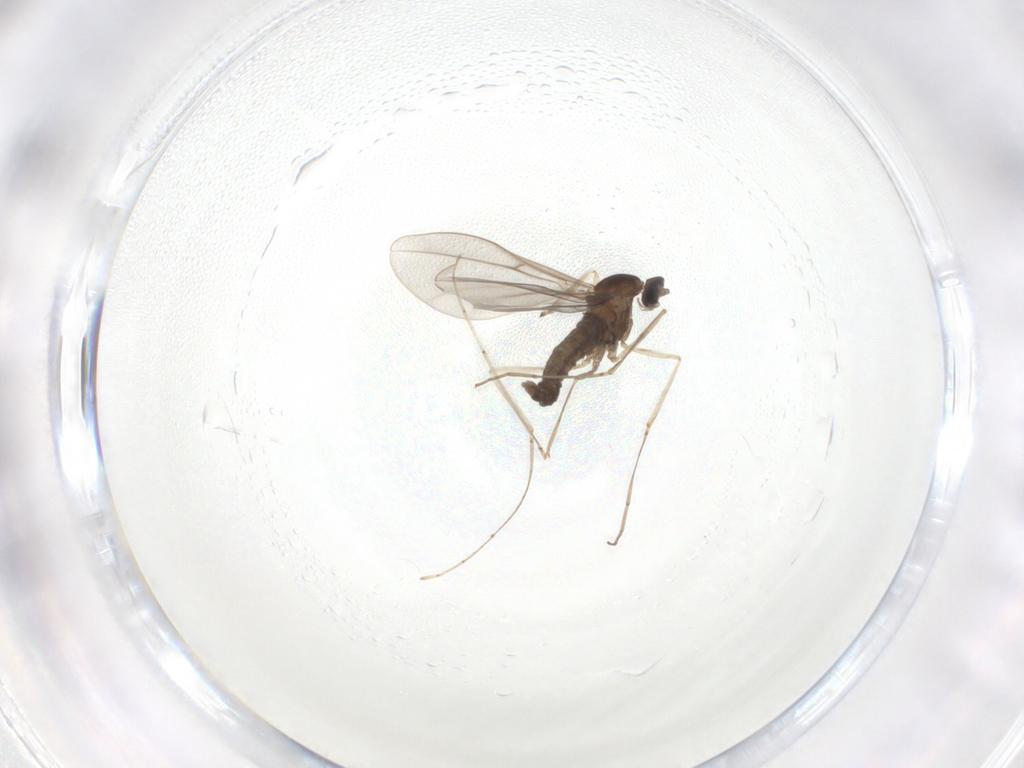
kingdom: Animalia
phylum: Arthropoda
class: Insecta
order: Diptera
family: Cecidomyiidae
